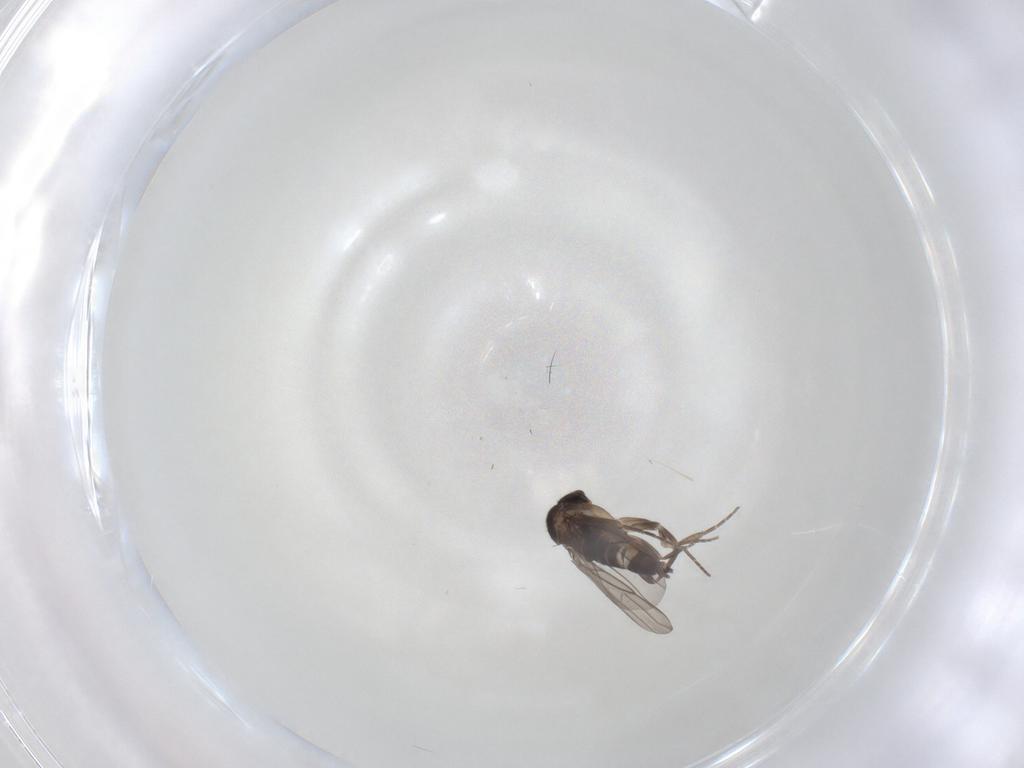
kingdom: Animalia
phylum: Arthropoda
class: Insecta
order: Diptera
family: Phoridae
